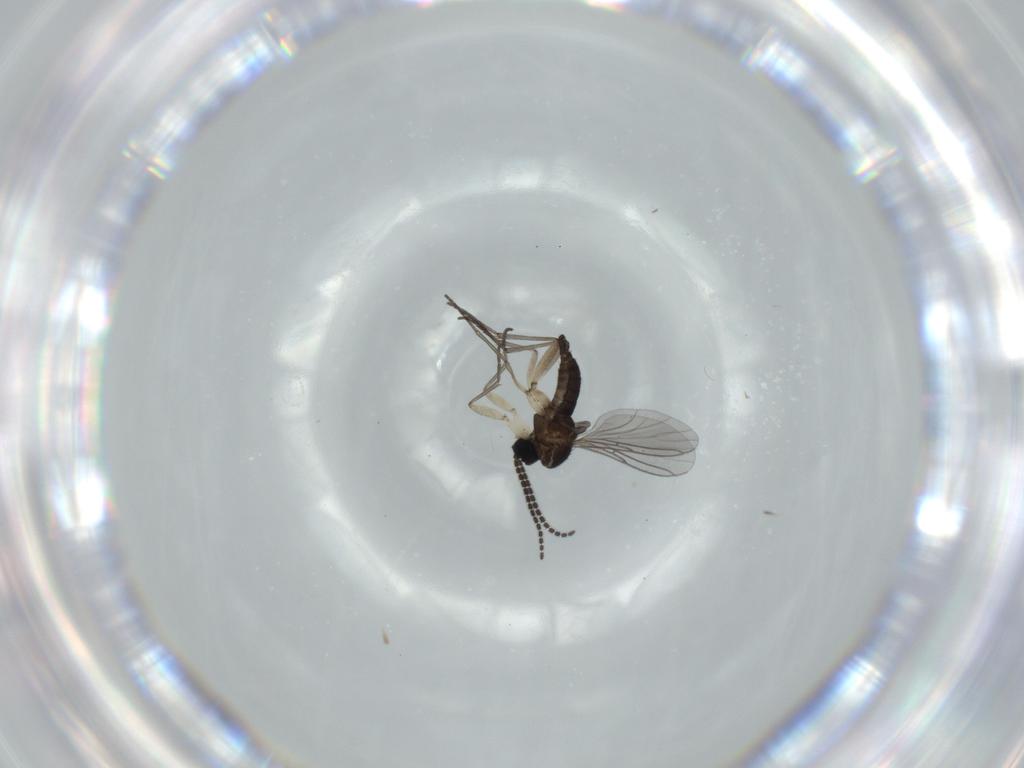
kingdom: Animalia
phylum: Arthropoda
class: Insecta
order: Diptera
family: Sciaridae
